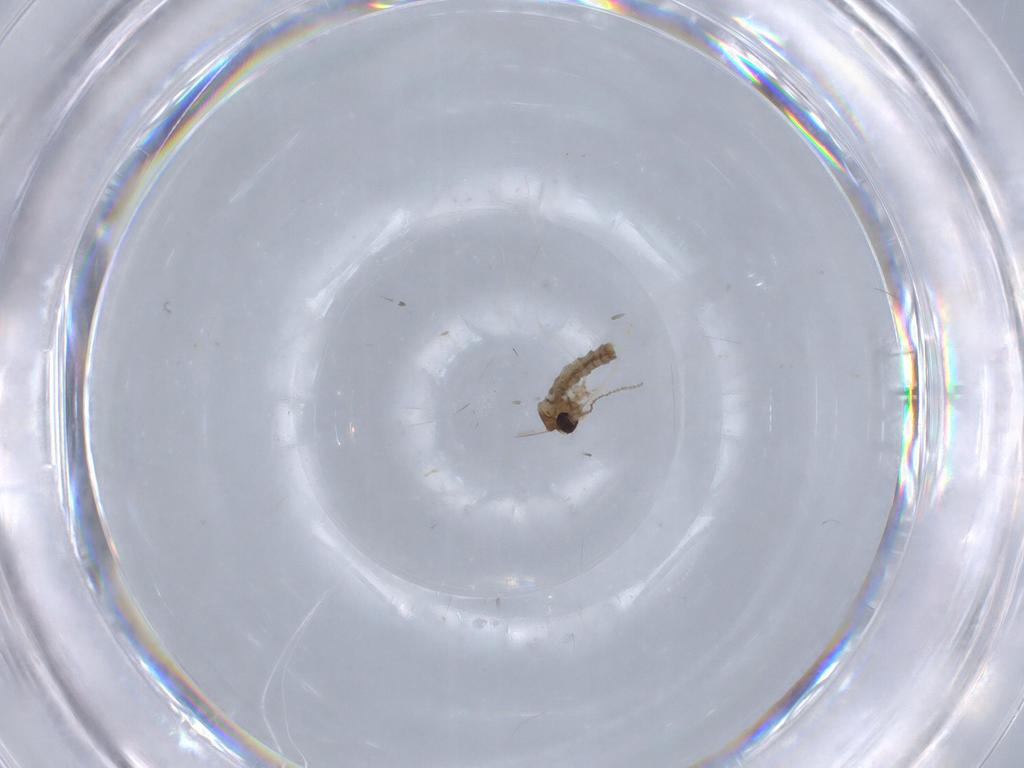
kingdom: Animalia
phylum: Arthropoda
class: Insecta
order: Diptera
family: Cecidomyiidae
